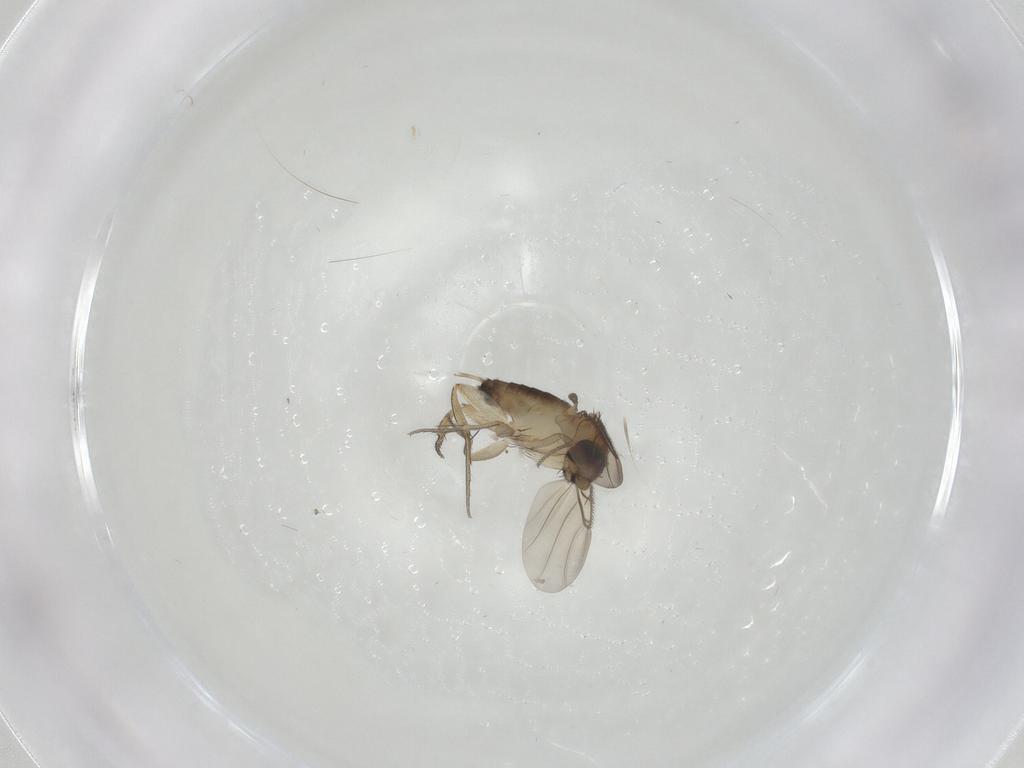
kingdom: Animalia
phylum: Arthropoda
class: Insecta
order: Diptera
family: Phoridae
